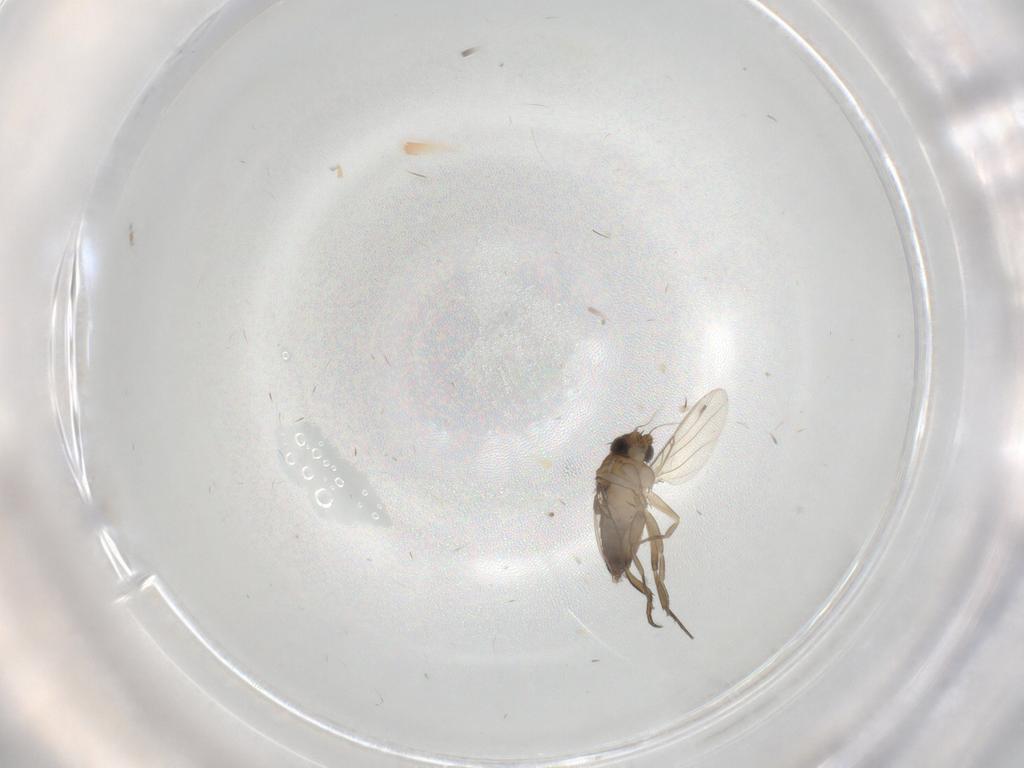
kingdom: Animalia
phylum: Arthropoda
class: Insecta
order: Diptera
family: Phoridae
